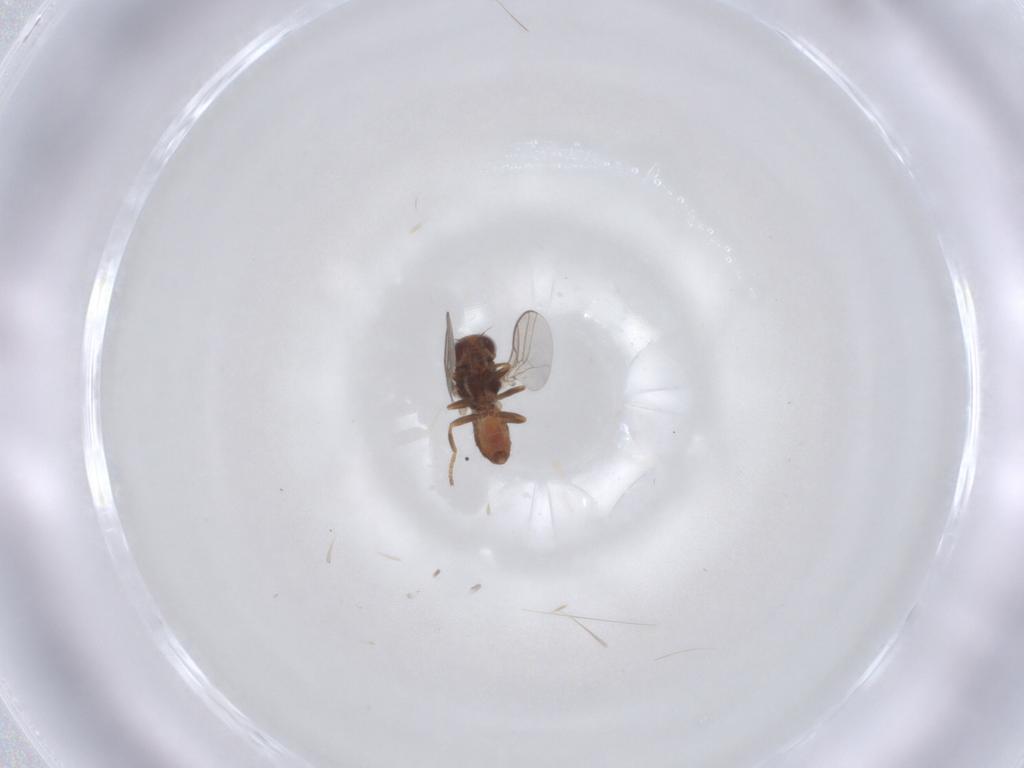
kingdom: Animalia
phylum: Arthropoda
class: Insecta
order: Diptera
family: Chloropidae
